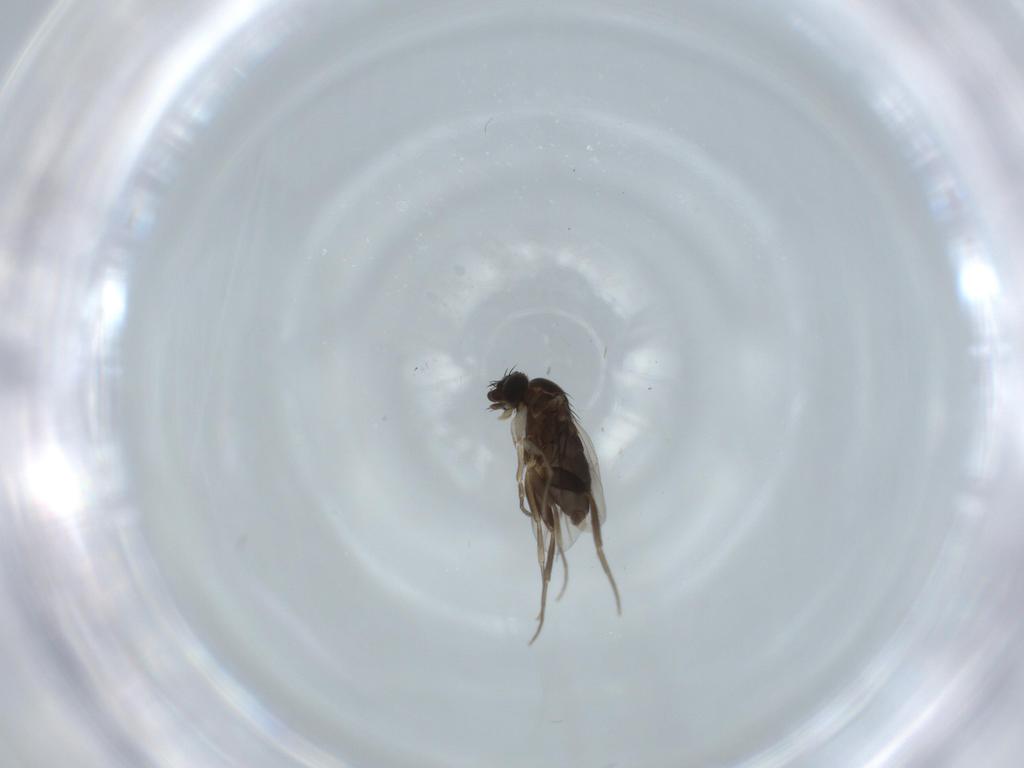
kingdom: Animalia
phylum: Arthropoda
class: Insecta
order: Diptera
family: Phoridae
